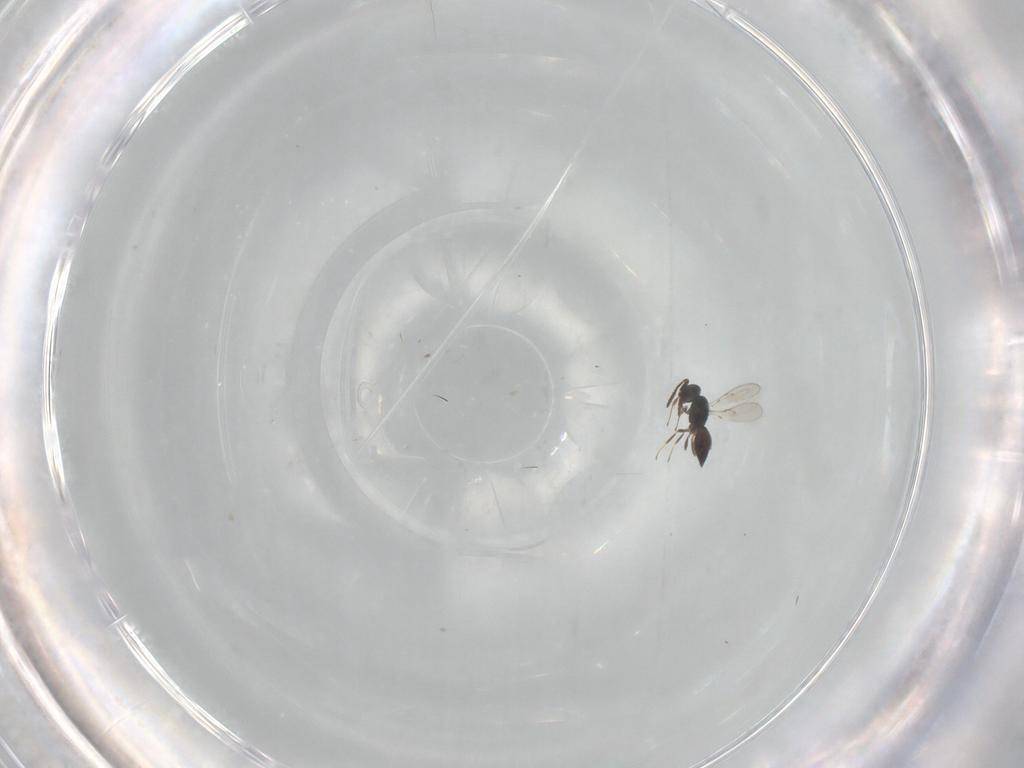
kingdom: Animalia
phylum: Arthropoda
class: Insecta
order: Hymenoptera
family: Scelionidae
